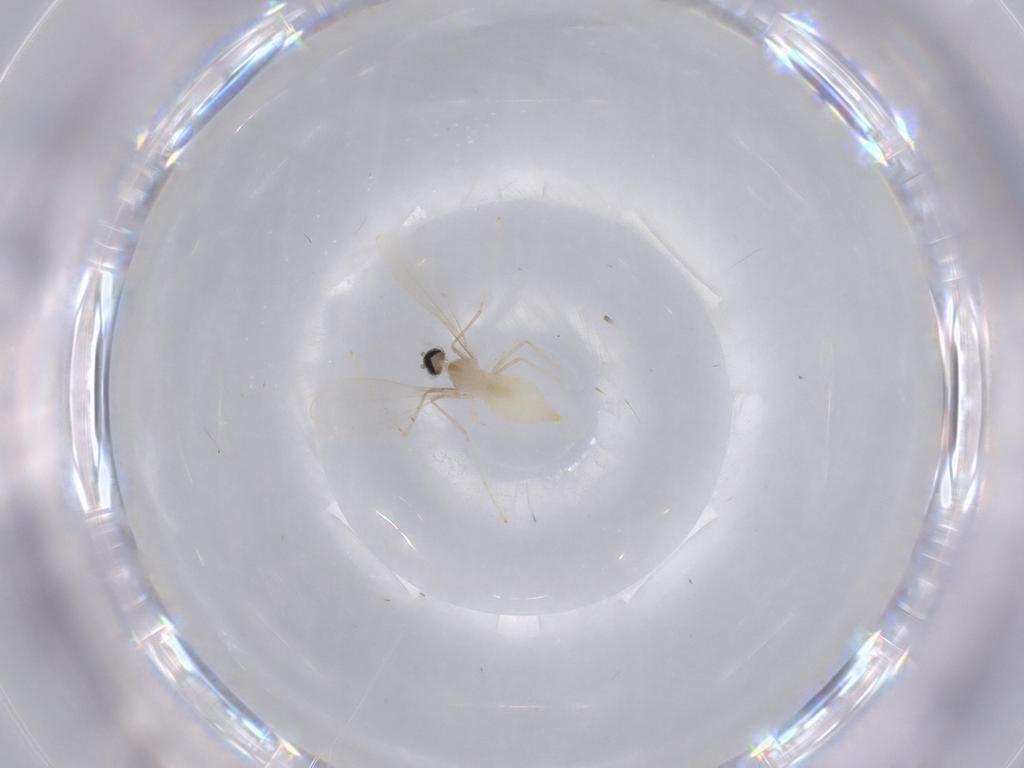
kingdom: Animalia
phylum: Arthropoda
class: Insecta
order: Diptera
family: Cecidomyiidae
